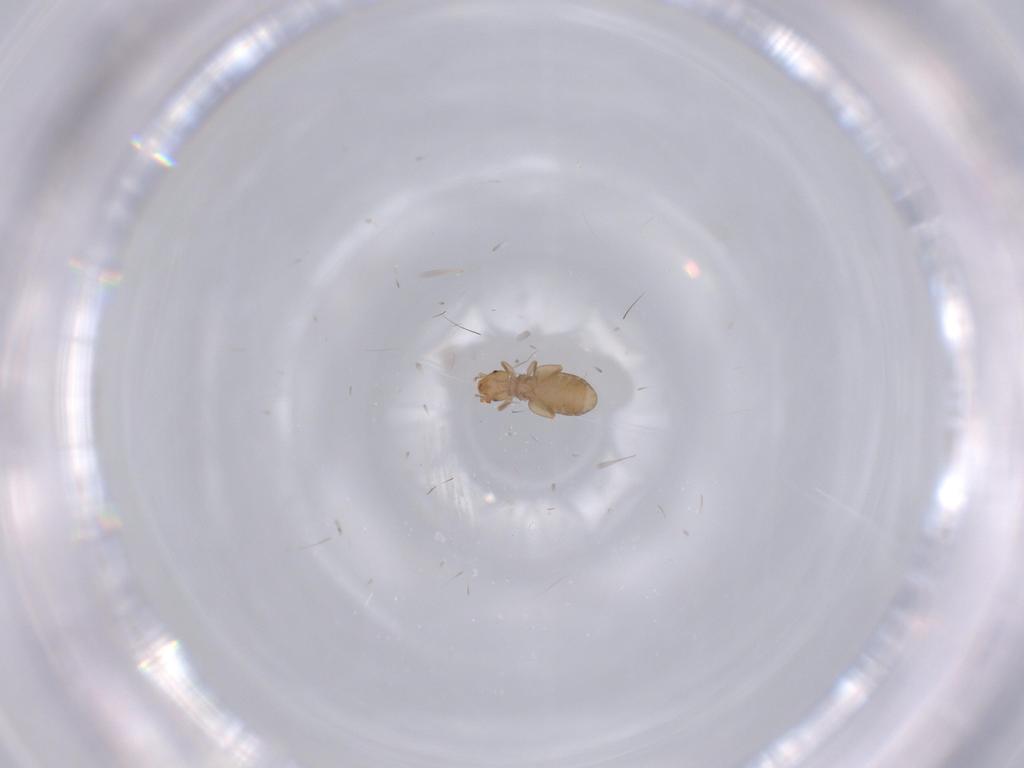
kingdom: Animalia
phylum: Arthropoda
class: Insecta
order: Psocodea
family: Liposcelididae
